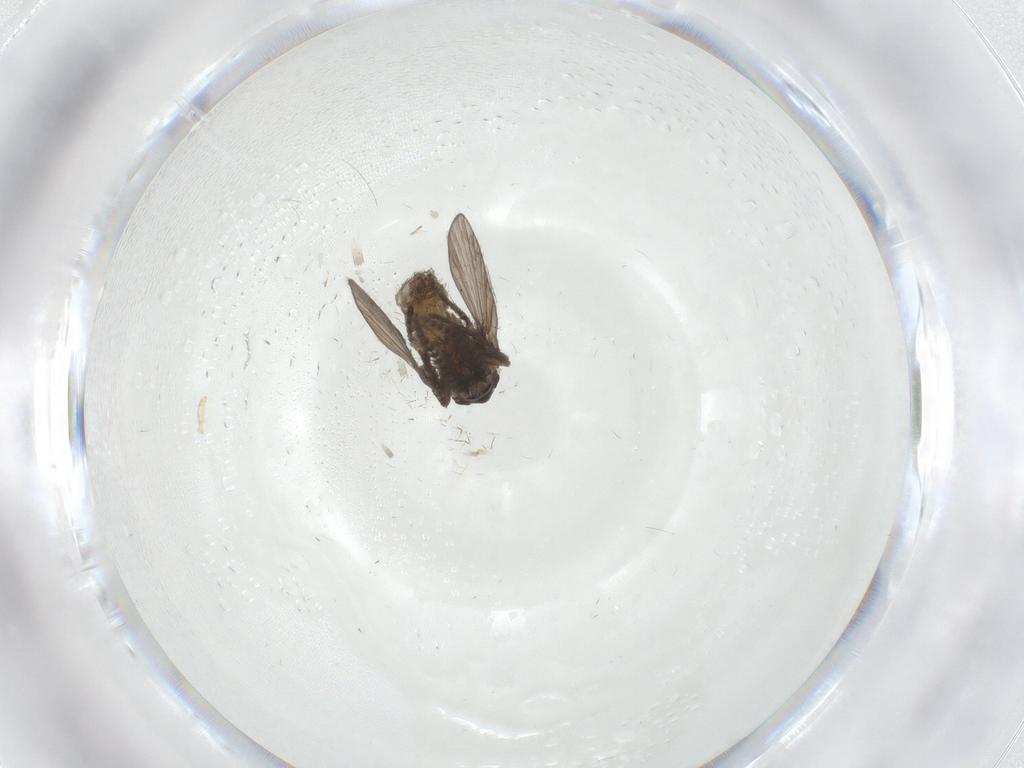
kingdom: Animalia
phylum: Arthropoda
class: Insecta
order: Diptera
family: Psychodidae
